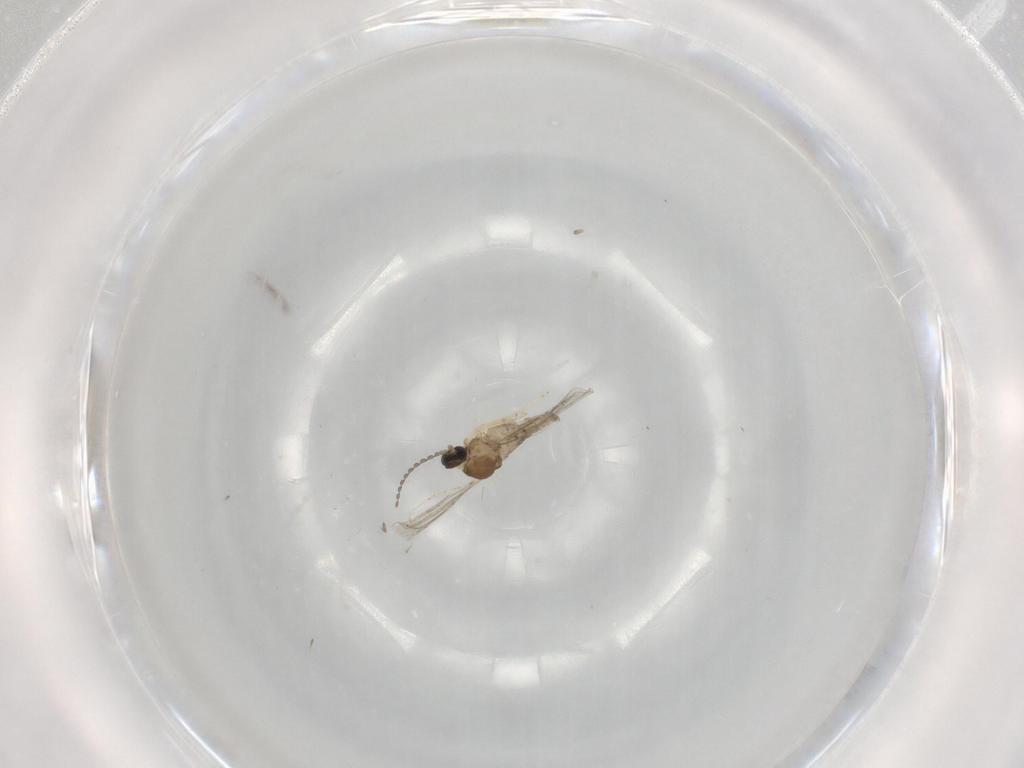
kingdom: Animalia
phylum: Arthropoda
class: Insecta
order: Diptera
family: Cecidomyiidae
